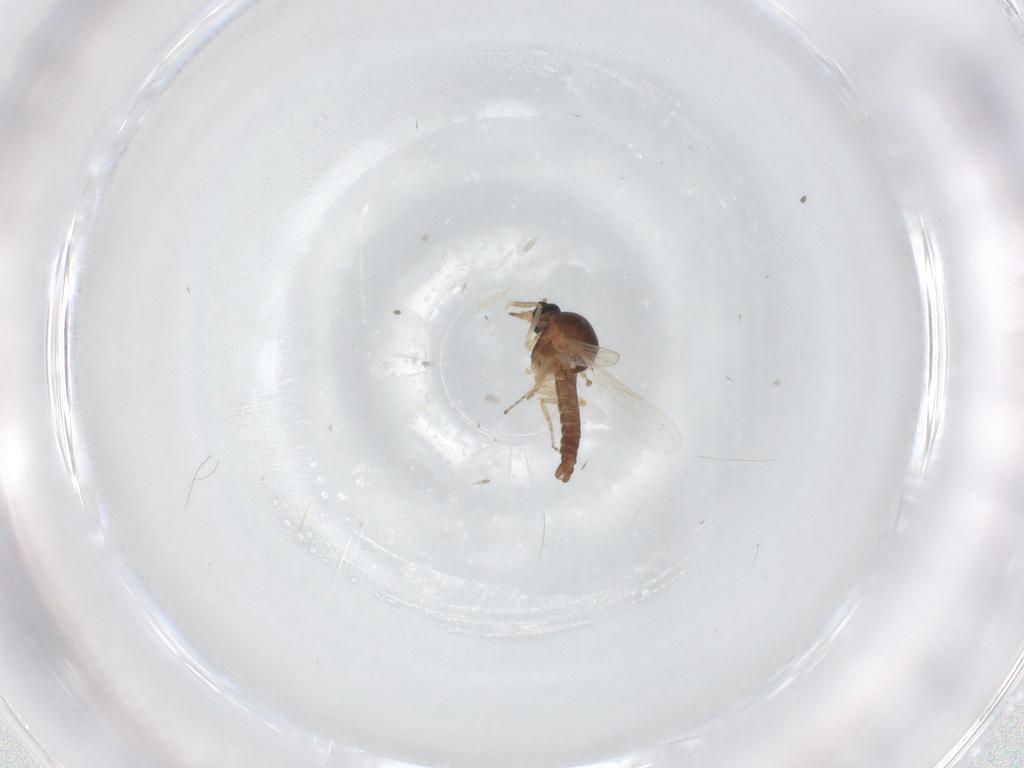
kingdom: Animalia
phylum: Arthropoda
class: Insecta
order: Diptera
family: Ceratopogonidae
